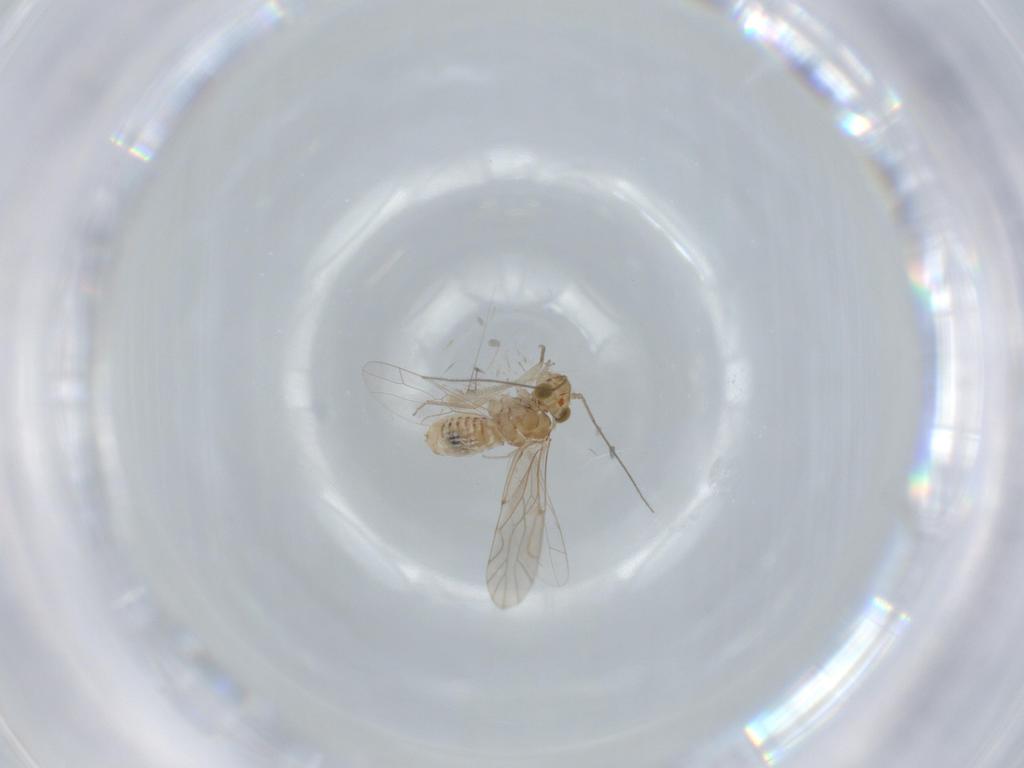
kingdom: Animalia
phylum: Arthropoda
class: Insecta
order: Psocodea
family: Lachesillidae
